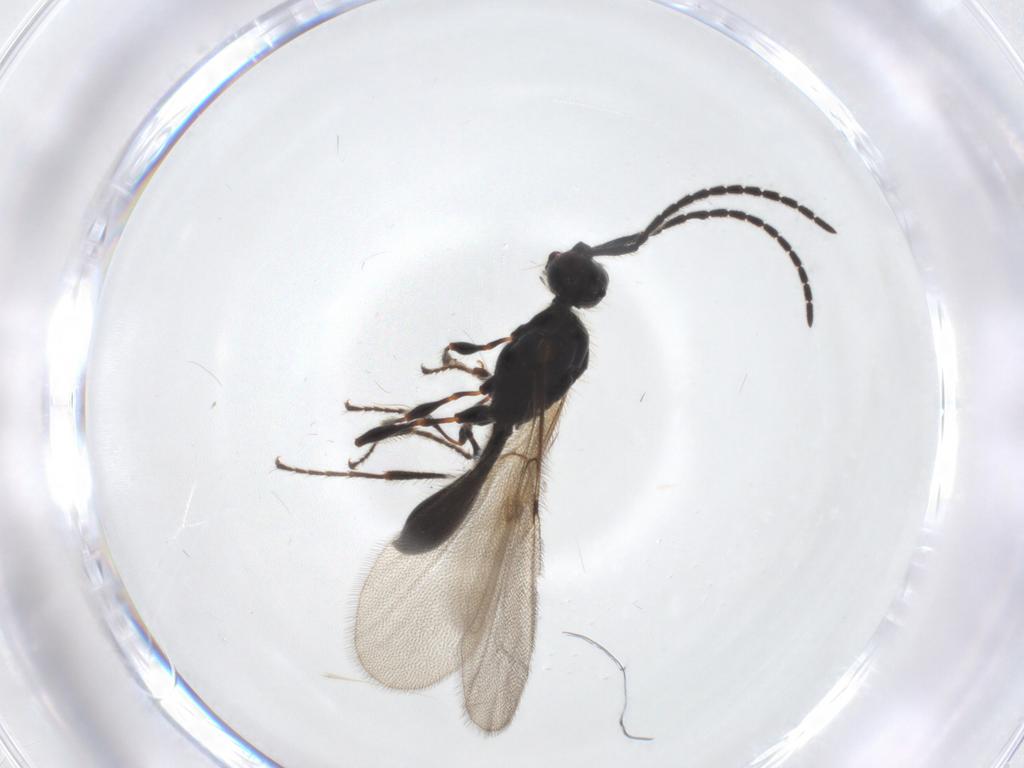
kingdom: Animalia
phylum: Arthropoda
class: Insecta
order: Hymenoptera
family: Diapriidae
